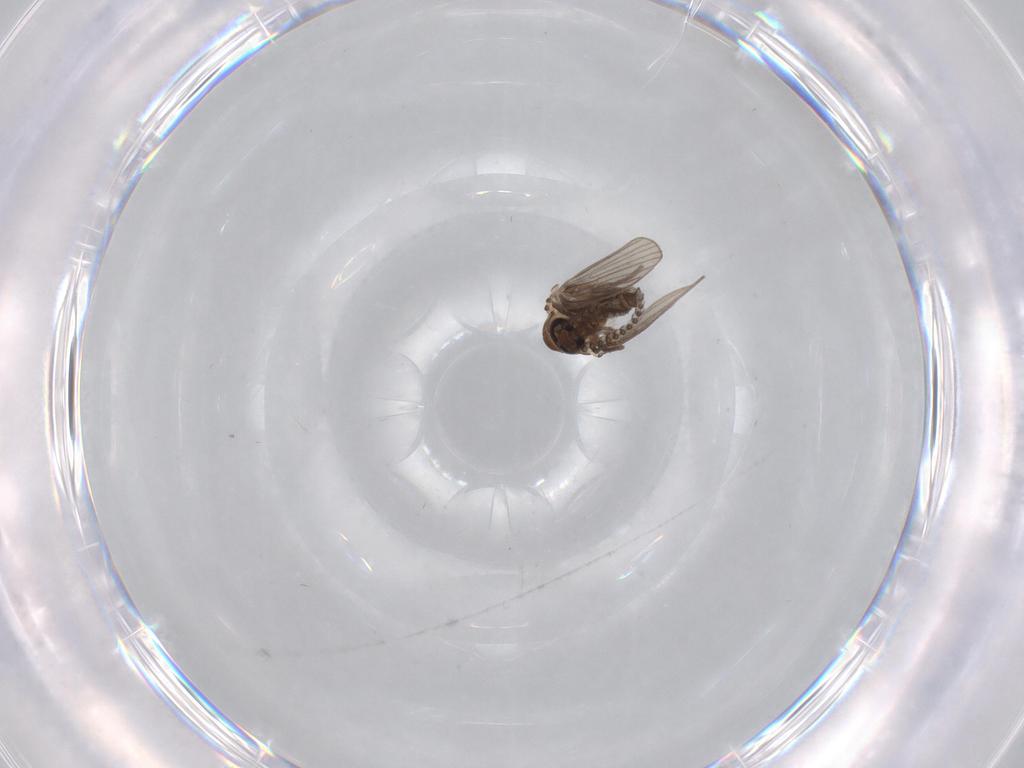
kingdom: Animalia
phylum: Arthropoda
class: Insecta
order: Diptera
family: Psychodidae
